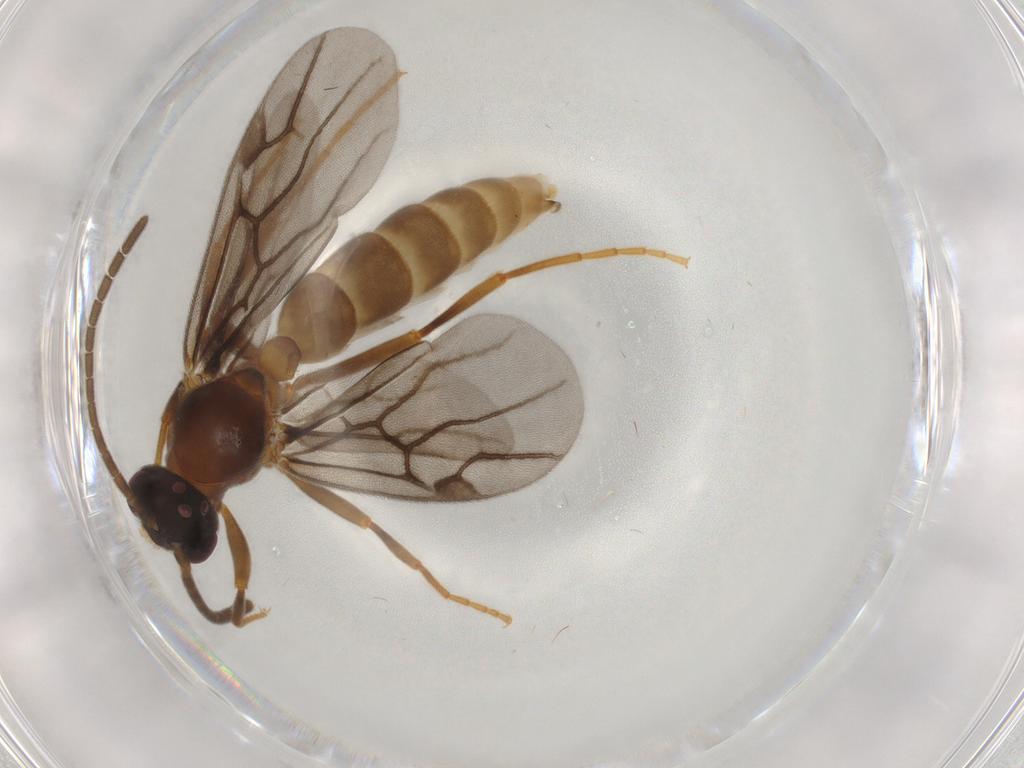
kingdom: Animalia
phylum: Arthropoda
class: Insecta
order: Hymenoptera
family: Formicidae
